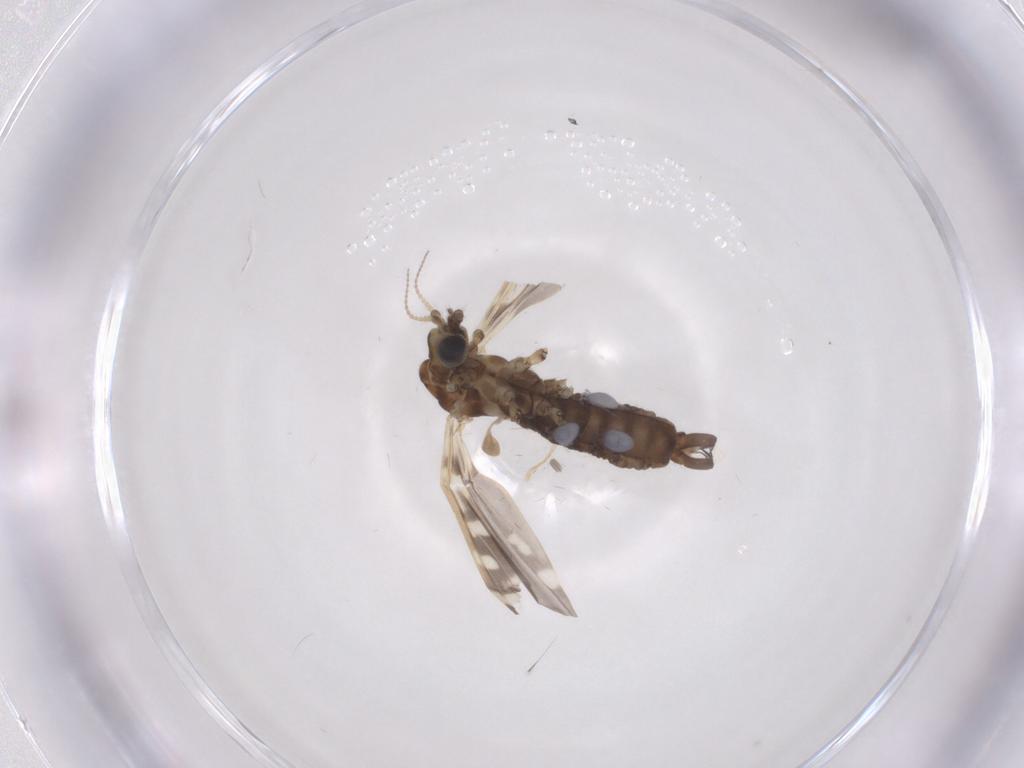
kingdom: Animalia
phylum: Arthropoda
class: Insecta
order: Diptera
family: Limoniidae
